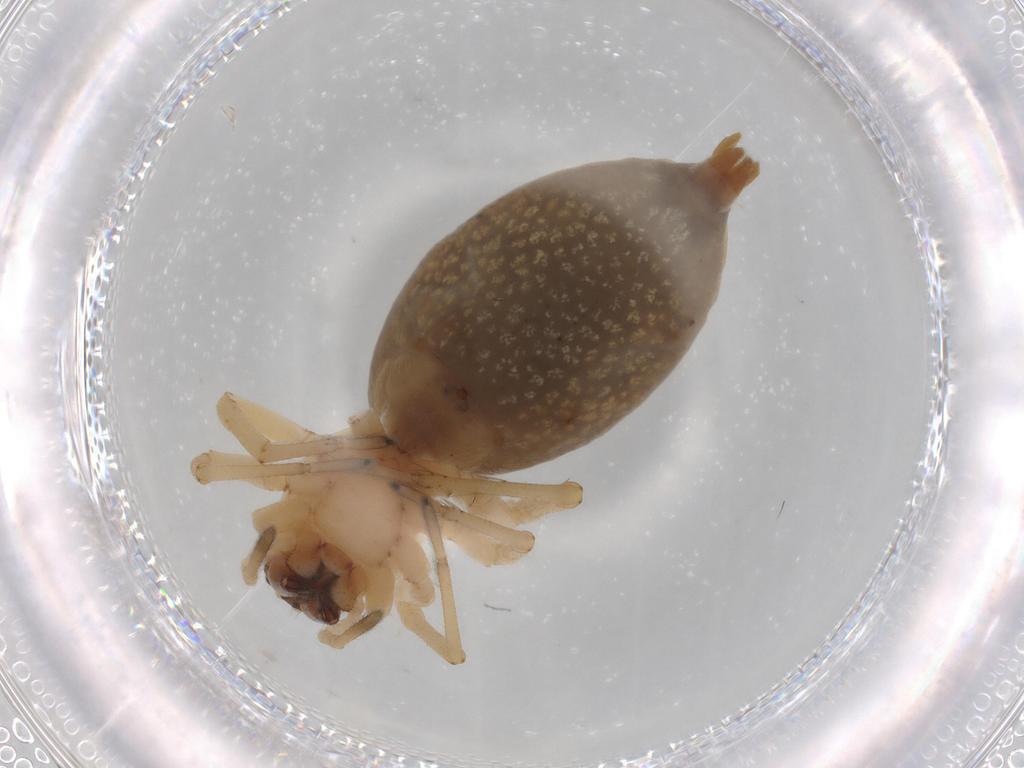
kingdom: Animalia
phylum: Arthropoda
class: Arachnida
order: Araneae
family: Cheiracanthiidae
